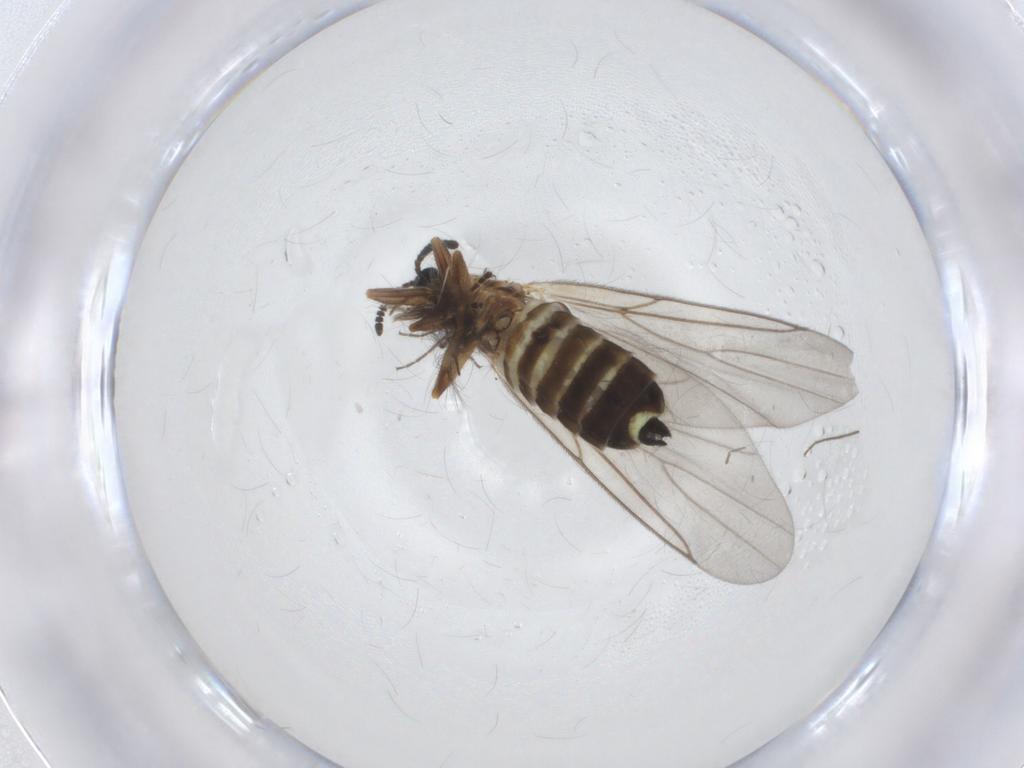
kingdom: Animalia
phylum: Arthropoda
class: Insecta
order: Diptera
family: Scatopsidae
